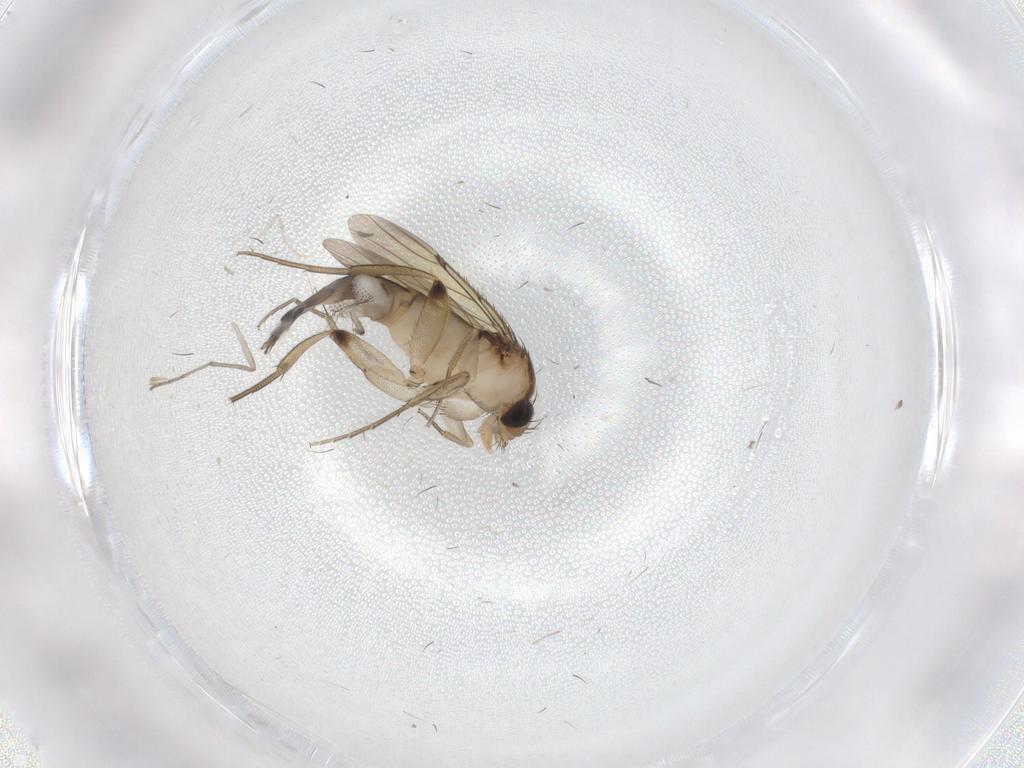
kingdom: Animalia
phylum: Arthropoda
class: Insecta
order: Diptera
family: Phoridae
